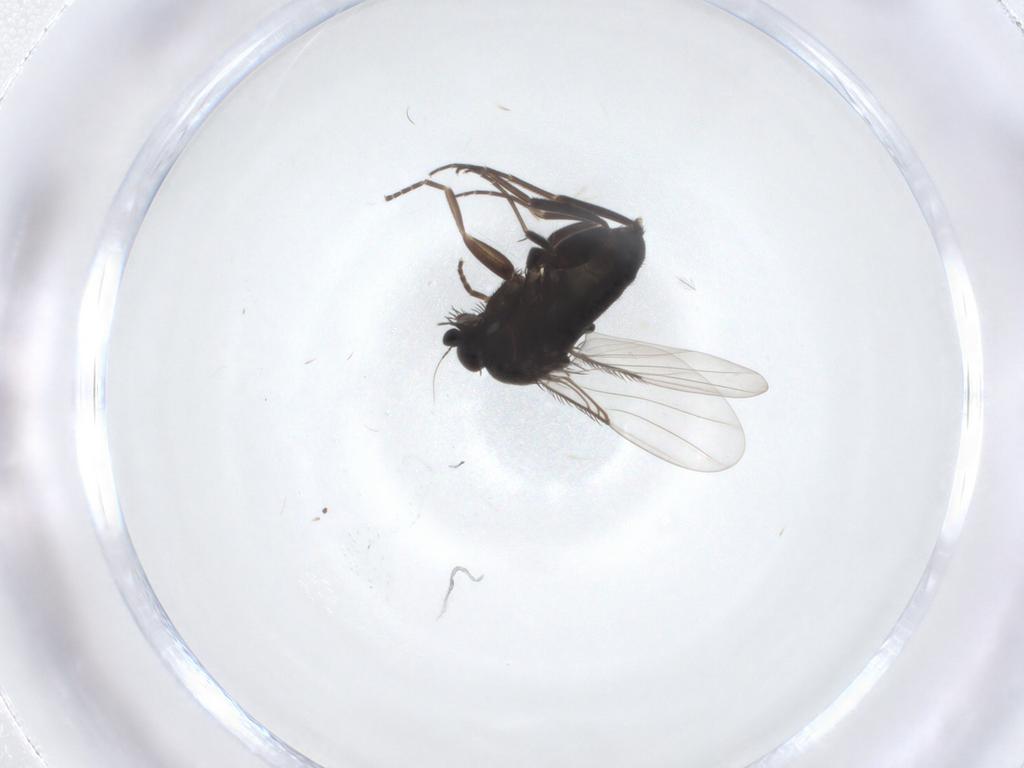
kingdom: Animalia
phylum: Arthropoda
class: Insecta
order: Diptera
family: Phoridae
